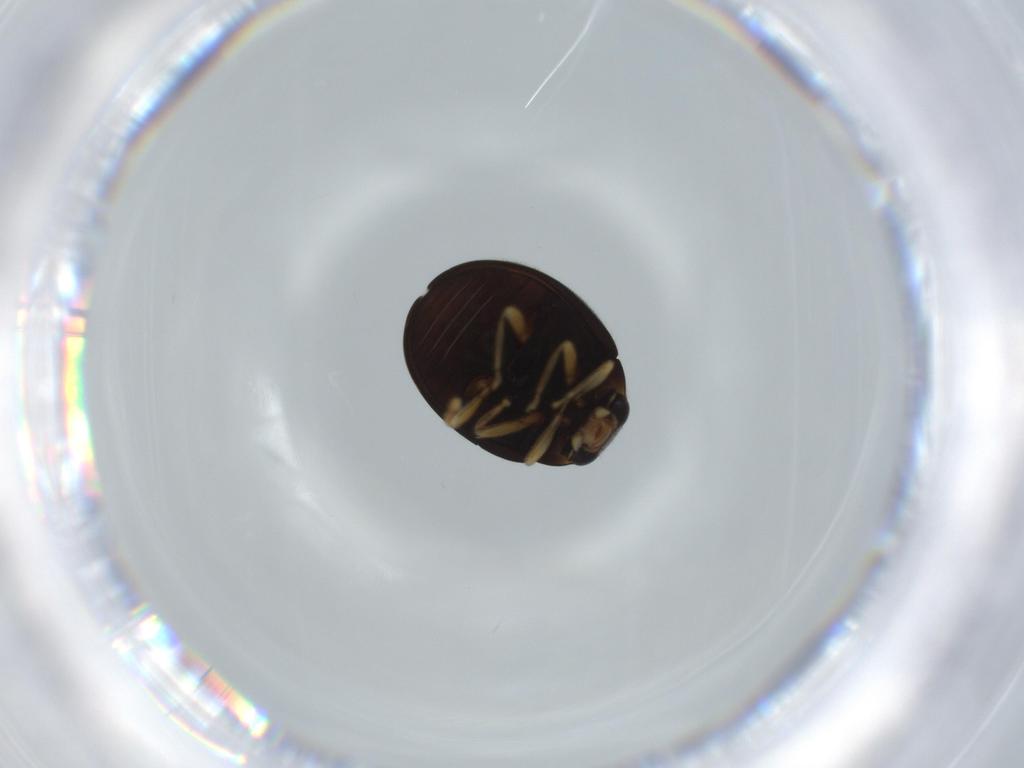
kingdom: Animalia
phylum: Arthropoda
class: Insecta
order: Coleoptera
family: Coccinellidae
